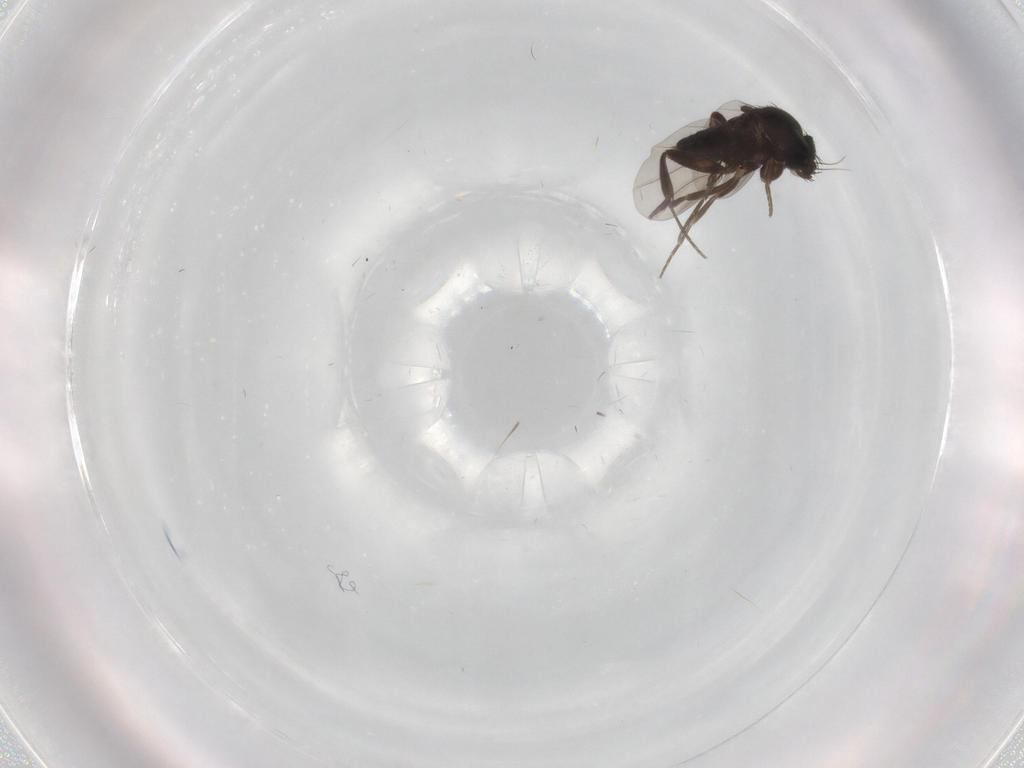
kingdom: Animalia
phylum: Arthropoda
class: Insecta
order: Diptera
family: Phoridae
